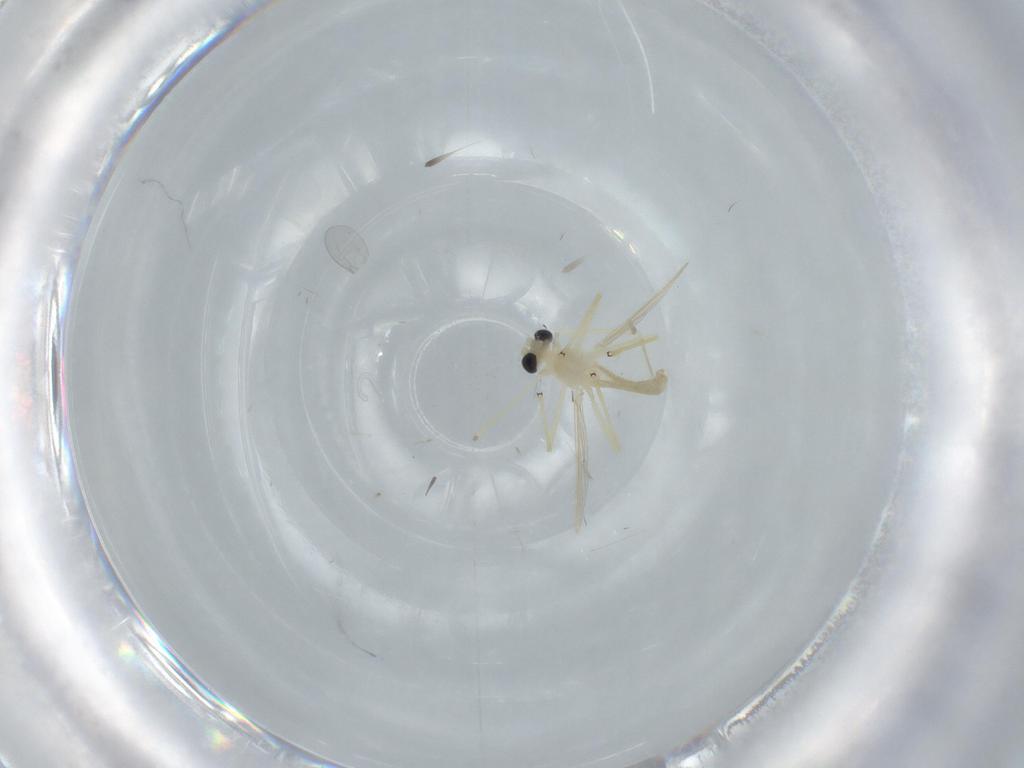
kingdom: Animalia
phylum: Arthropoda
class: Insecta
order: Diptera
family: Chironomidae
